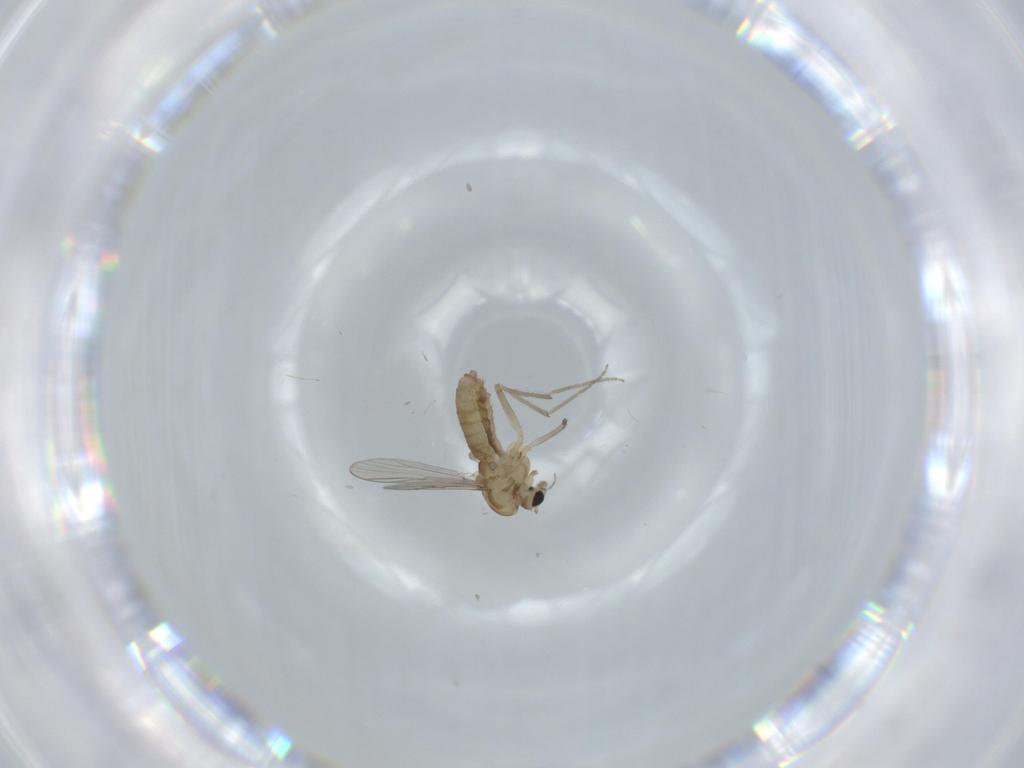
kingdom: Animalia
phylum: Arthropoda
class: Insecta
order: Diptera
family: Chironomidae
